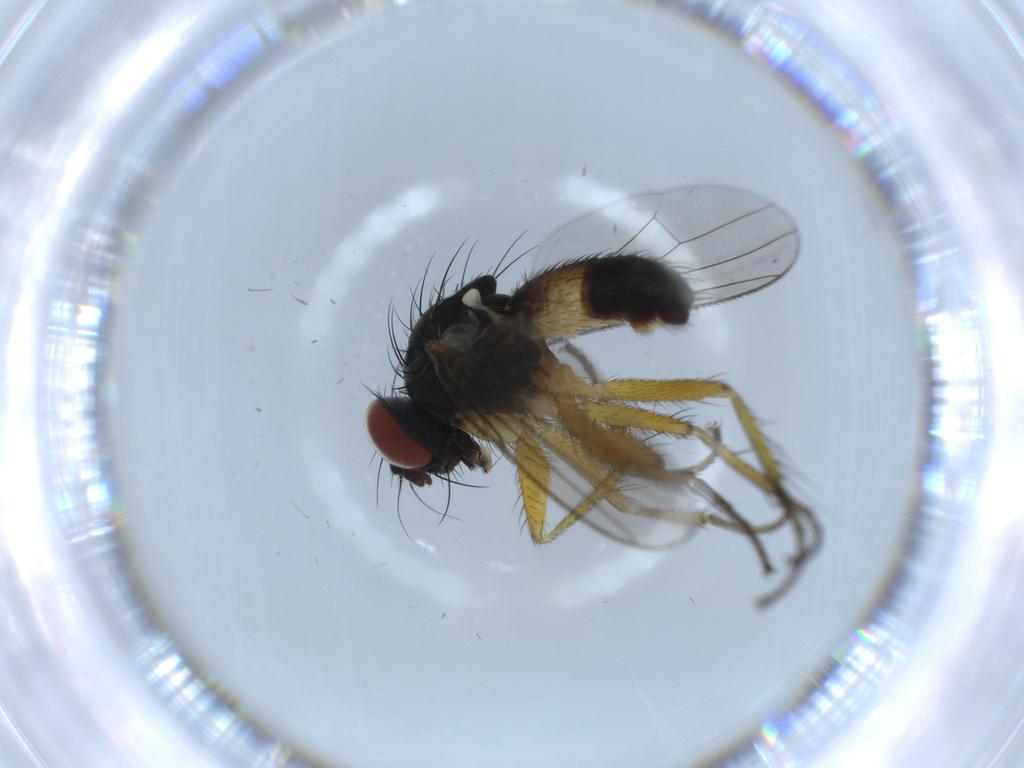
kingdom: Animalia
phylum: Arthropoda
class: Insecta
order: Diptera
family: Muscidae
